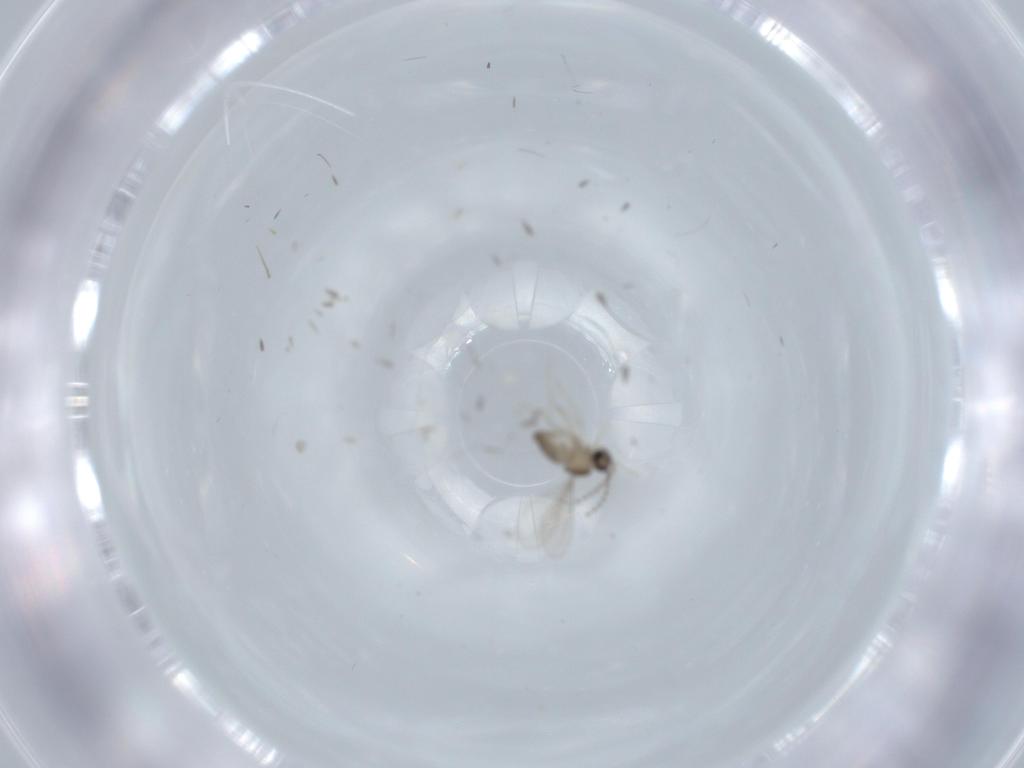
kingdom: Animalia
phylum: Arthropoda
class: Insecta
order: Diptera
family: Cecidomyiidae
